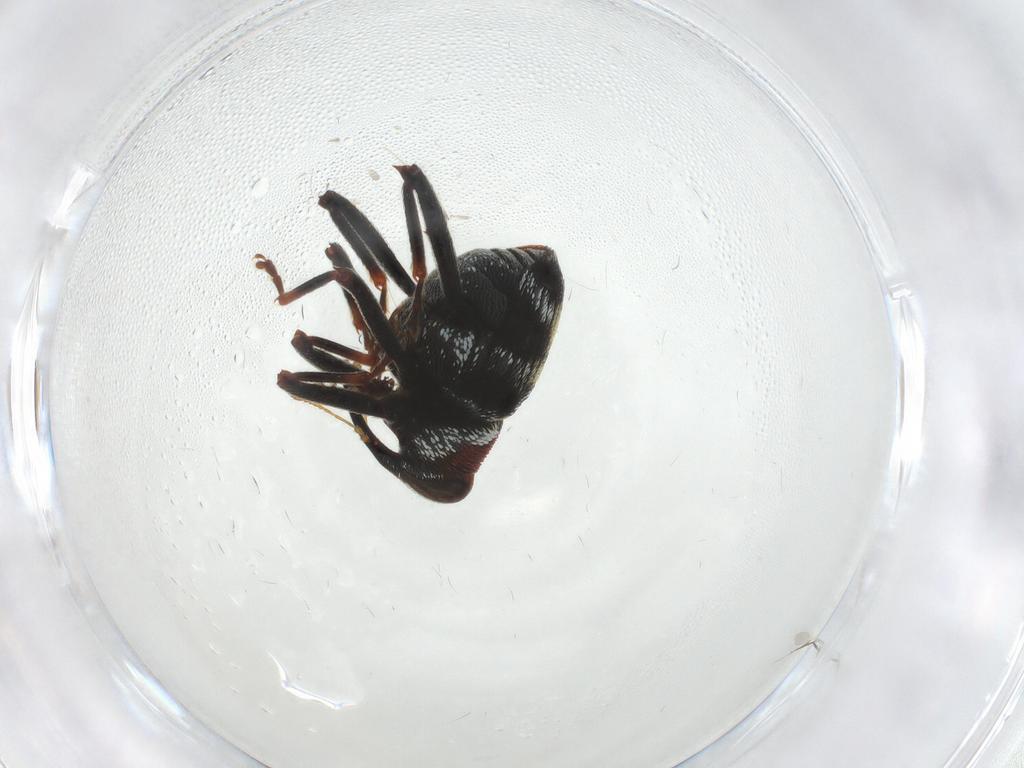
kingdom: Animalia
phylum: Arthropoda
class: Insecta
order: Coleoptera
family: Curculionidae
